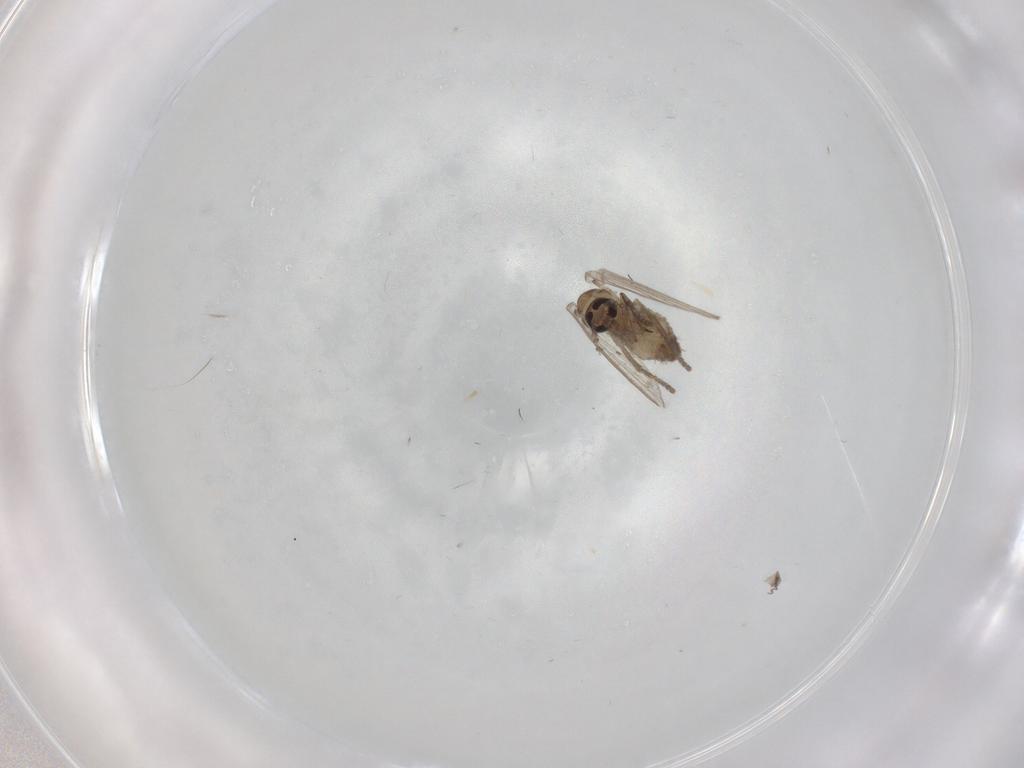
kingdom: Animalia
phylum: Arthropoda
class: Insecta
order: Diptera
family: Psychodidae
